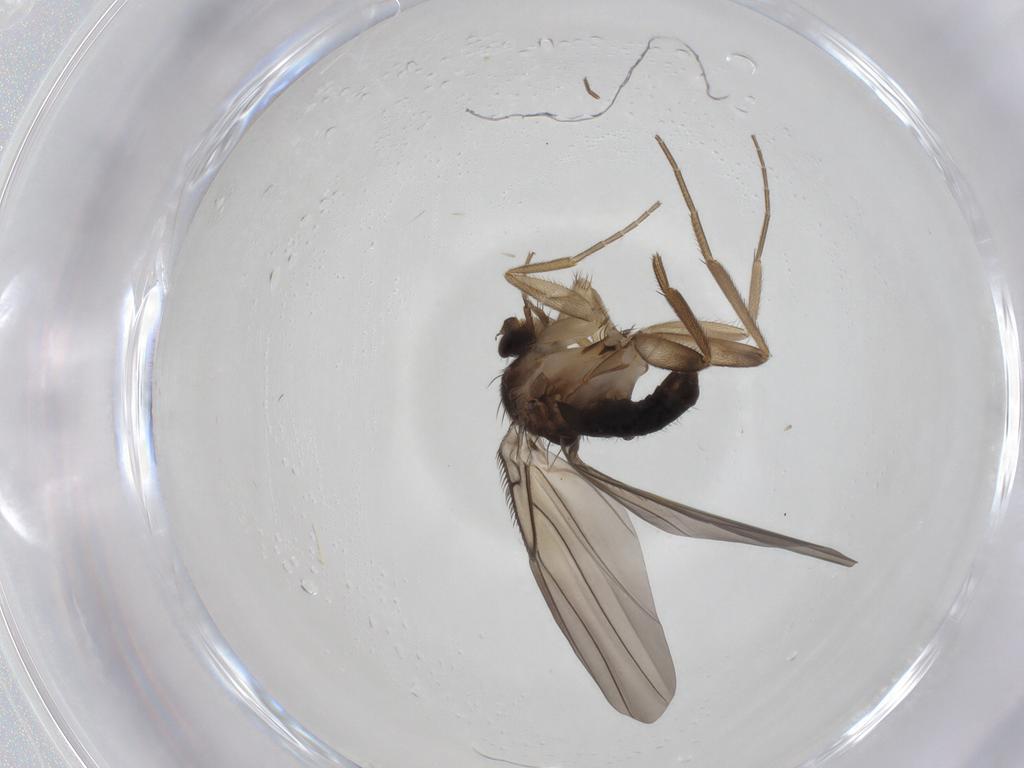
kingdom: Animalia
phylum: Arthropoda
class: Insecta
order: Diptera
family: Phoridae
